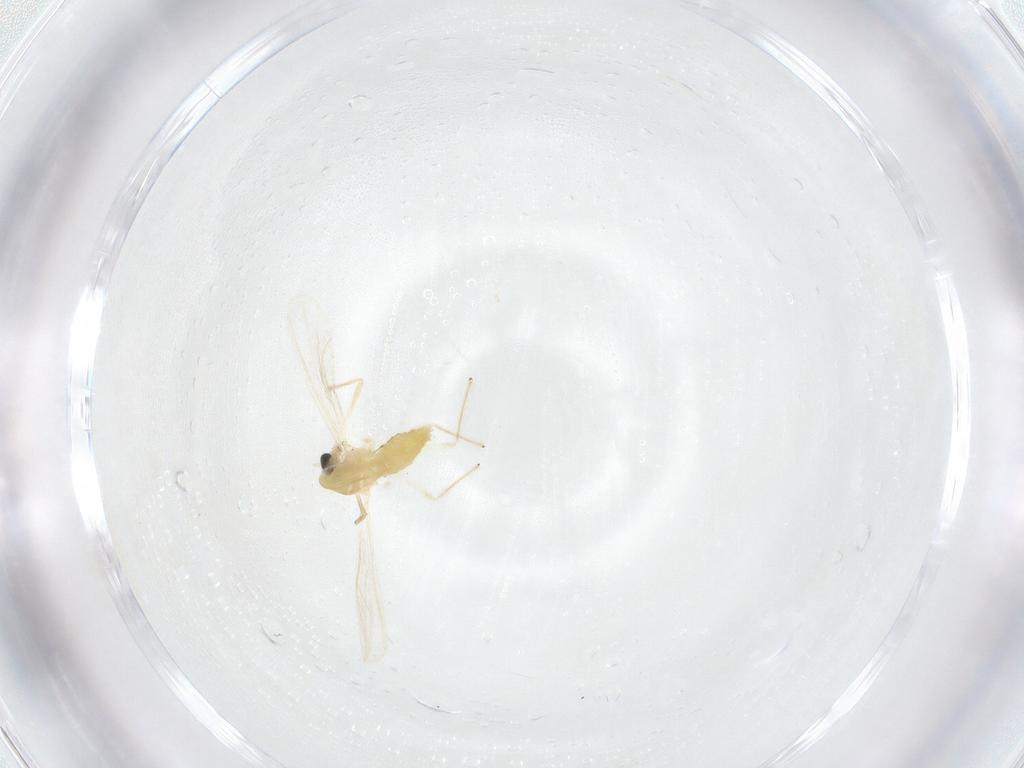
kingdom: Animalia
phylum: Arthropoda
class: Insecta
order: Diptera
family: Chironomidae
